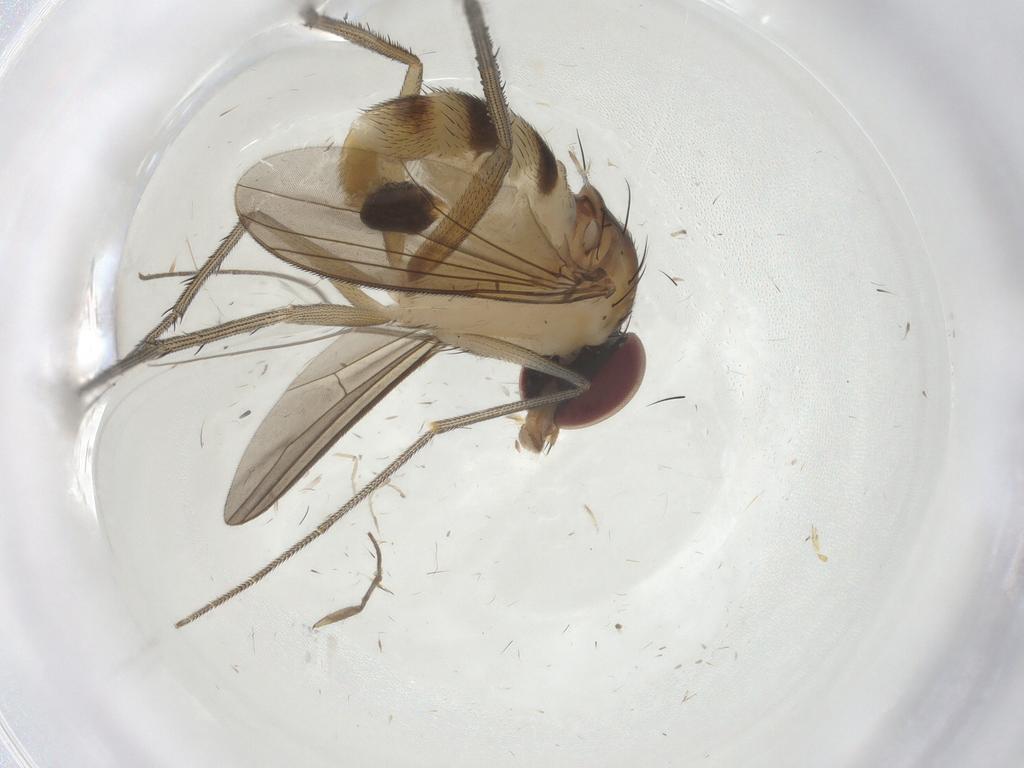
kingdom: Animalia
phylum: Arthropoda
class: Insecta
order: Diptera
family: Dolichopodidae
